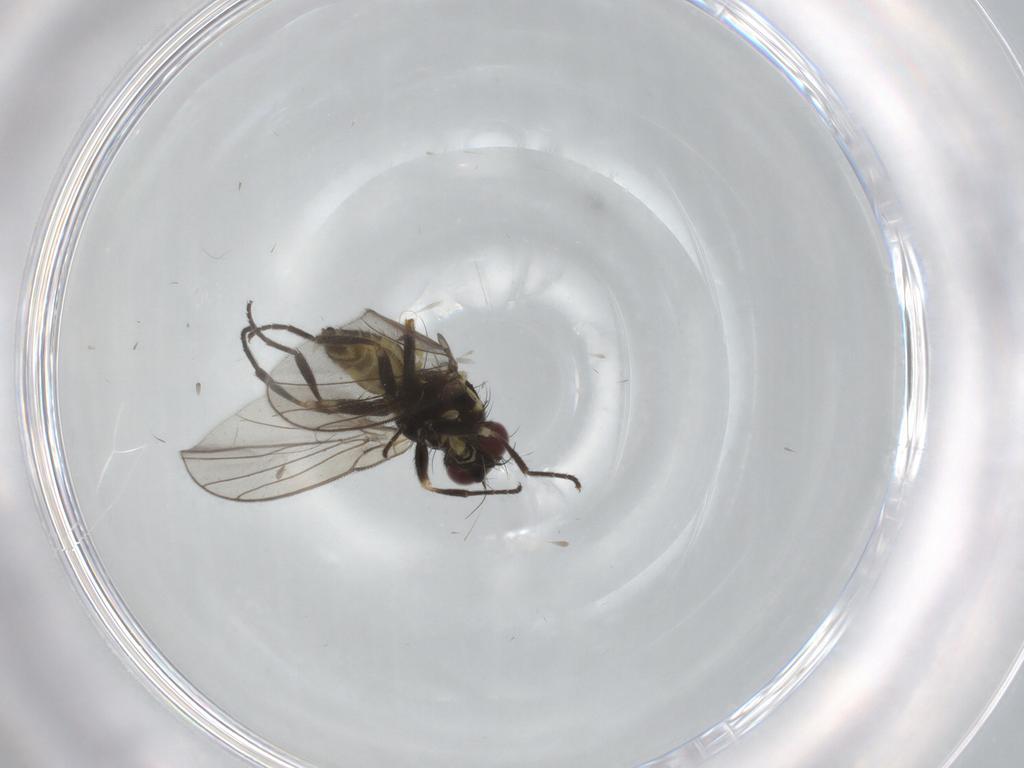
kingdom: Animalia
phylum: Arthropoda
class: Insecta
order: Diptera
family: Agromyzidae
